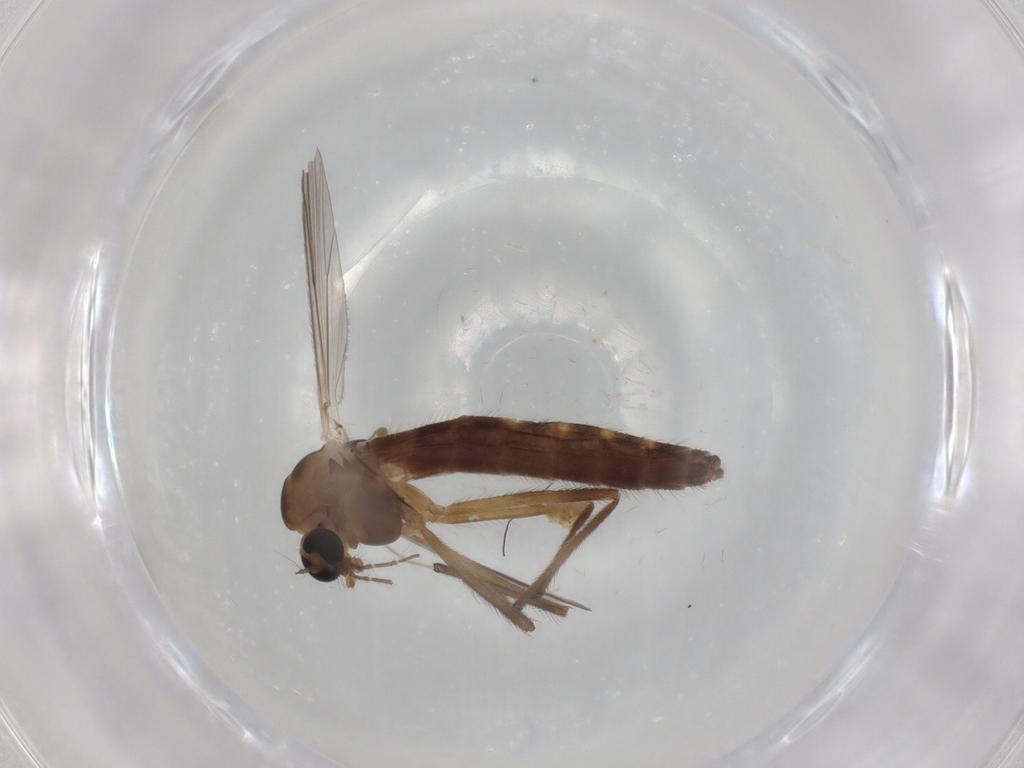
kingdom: Animalia
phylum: Arthropoda
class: Insecta
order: Diptera
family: Chironomidae
